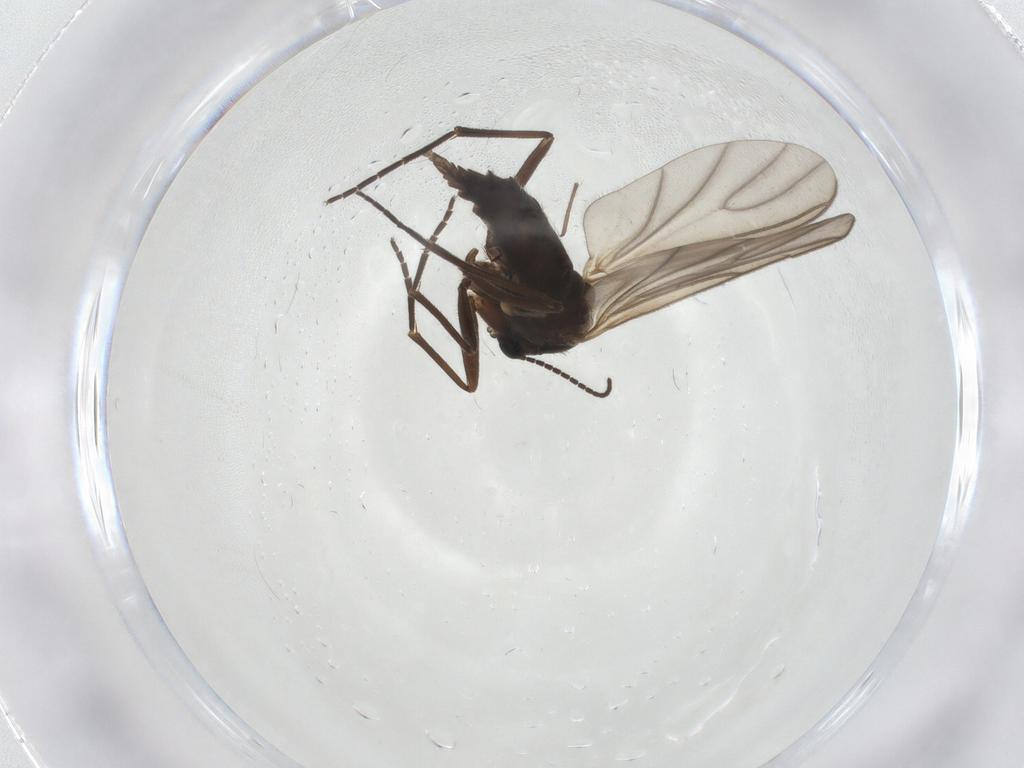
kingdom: Animalia
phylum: Arthropoda
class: Insecta
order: Diptera
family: Sciaridae
